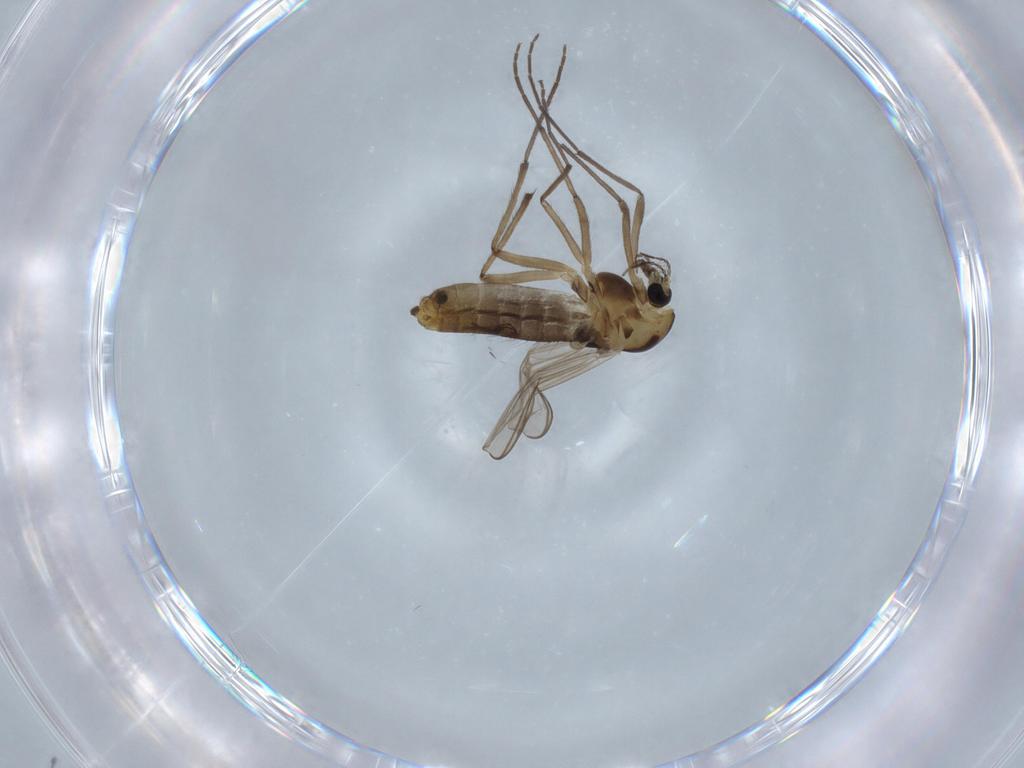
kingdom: Animalia
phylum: Arthropoda
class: Insecta
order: Diptera
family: Chironomidae
